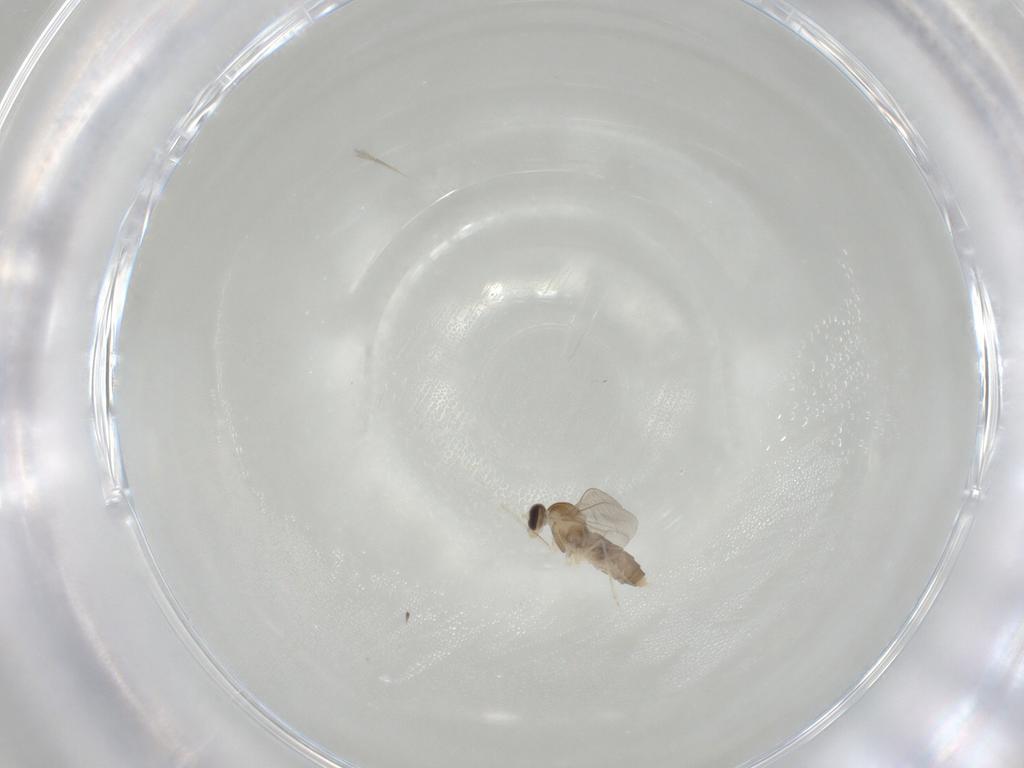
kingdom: Animalia
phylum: Arthropoda
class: Insecta
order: Diptera
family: Cecidomyiidae
